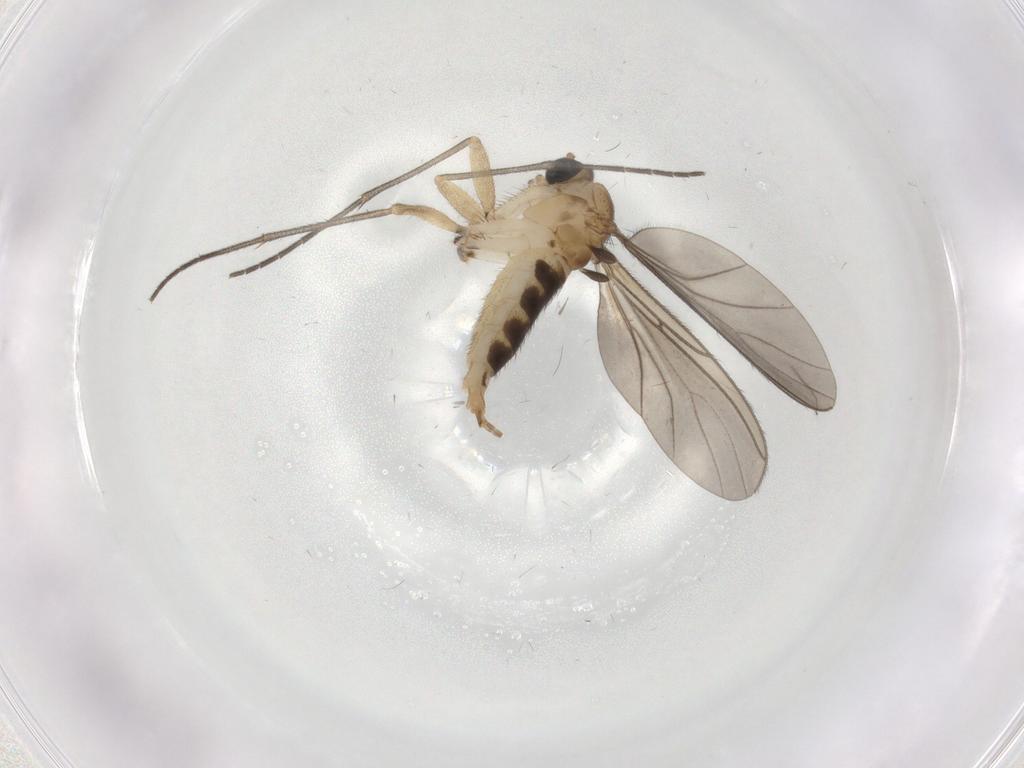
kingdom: Animalia
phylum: Arthropoda
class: Insecta
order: Diptera
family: Sciaridae
